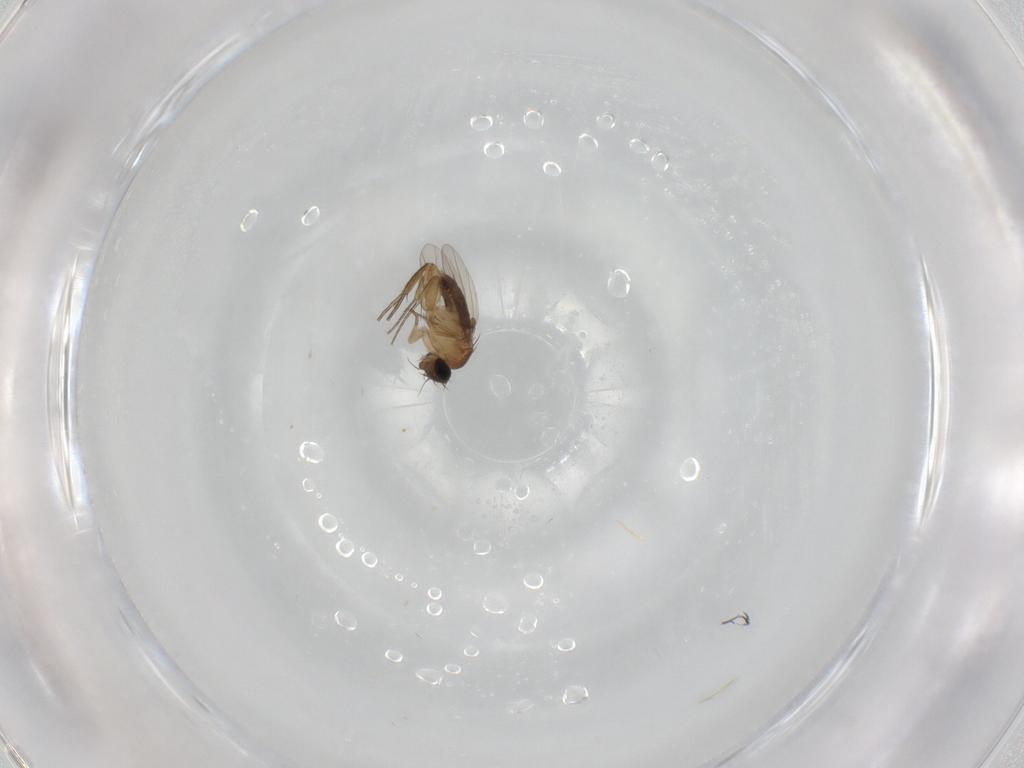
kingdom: Animalia
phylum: Arthropoda
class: Insecta
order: Diptera
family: Phoridae
